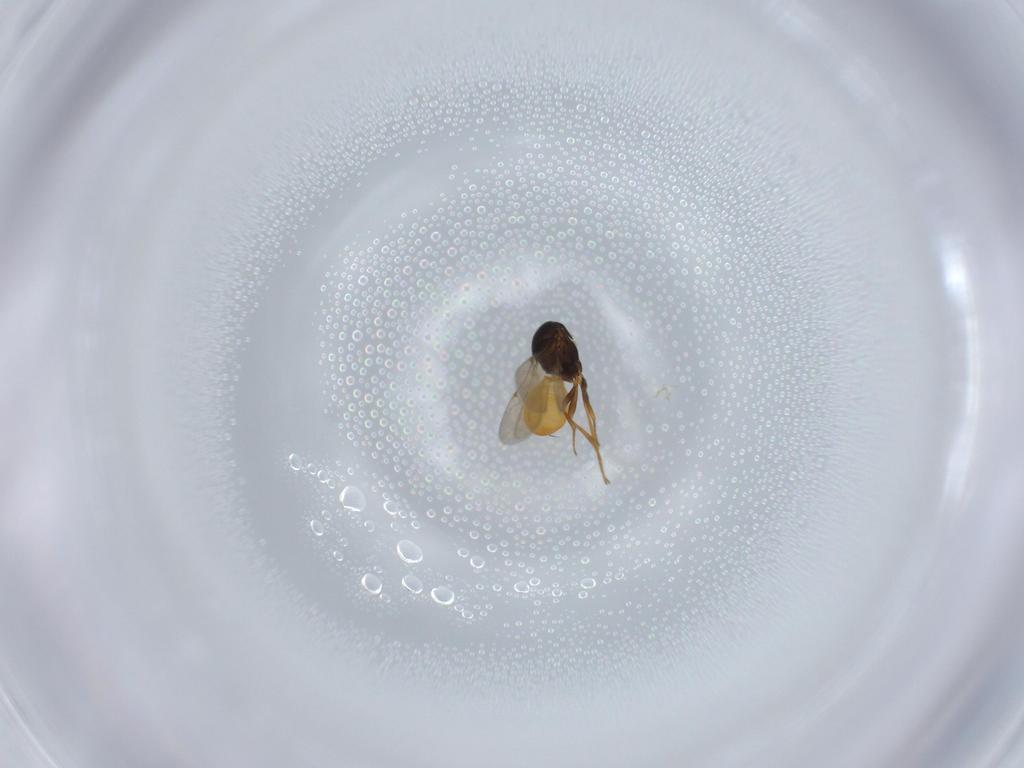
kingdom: Animalia
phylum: Arthropoda
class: Insecta
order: Hymenoptera
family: Scelionidae
